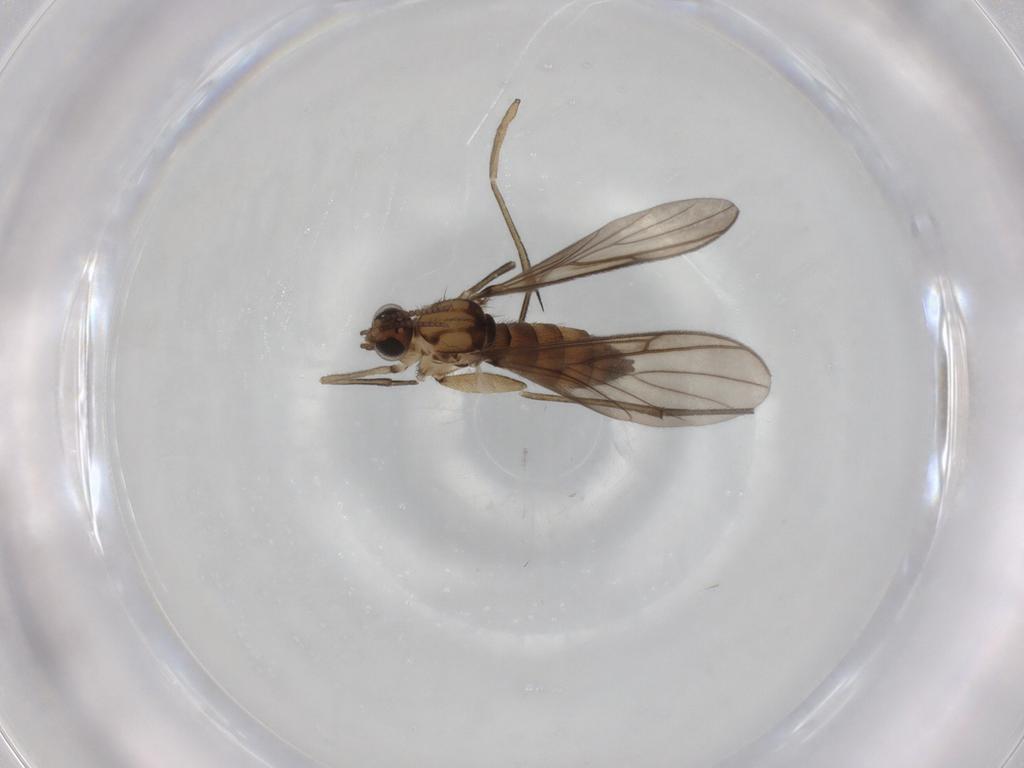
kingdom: Animalia
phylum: Arthropoda
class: Insecta
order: Diptera
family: Keroplatidae
